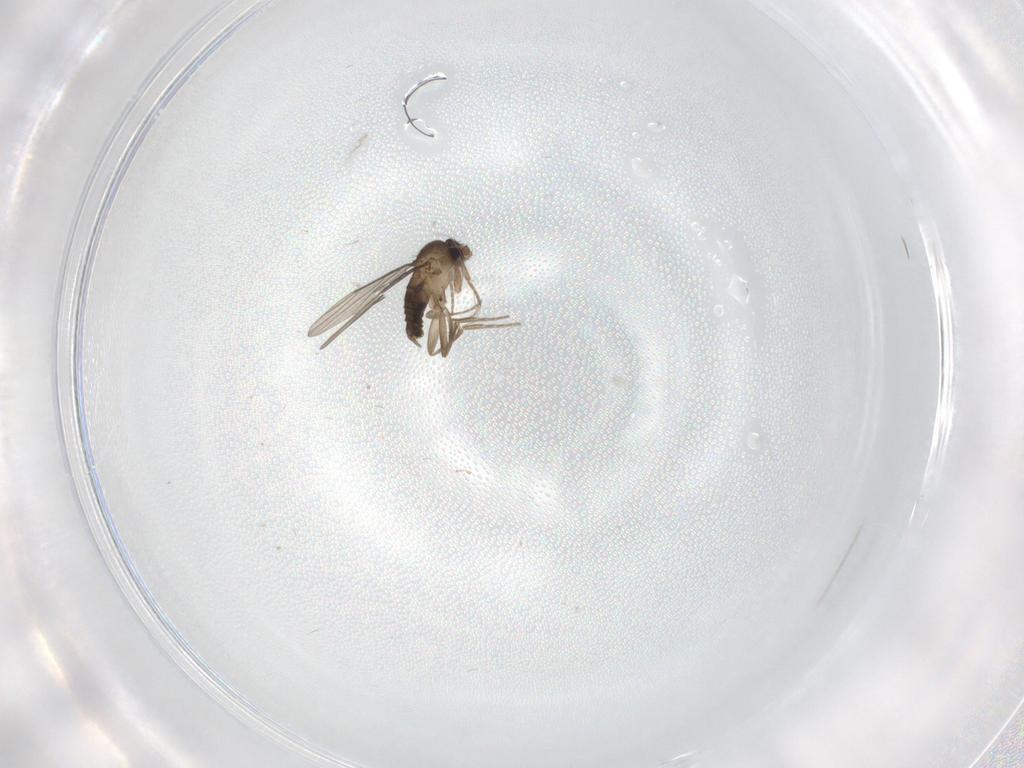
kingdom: Animalia
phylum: Arthropoda
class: Insecta
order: Diptera
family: Cecidomyiidae
